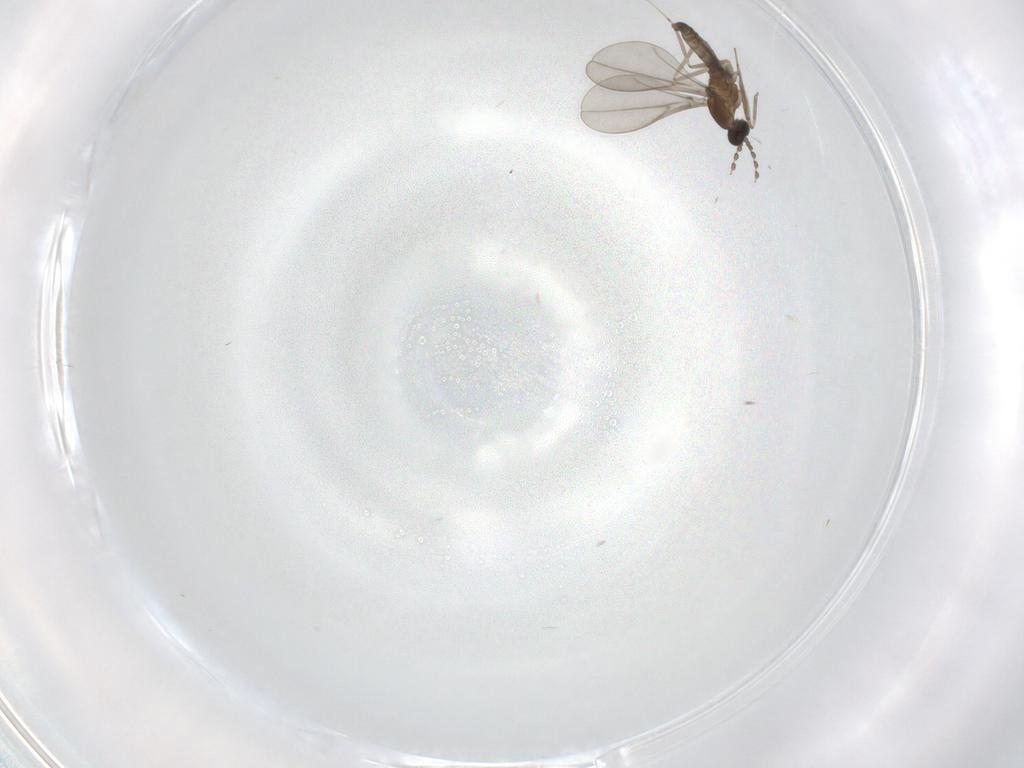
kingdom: Animalia
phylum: Arthropoda
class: Insecta
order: Diptera
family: Cecidomyiidae
